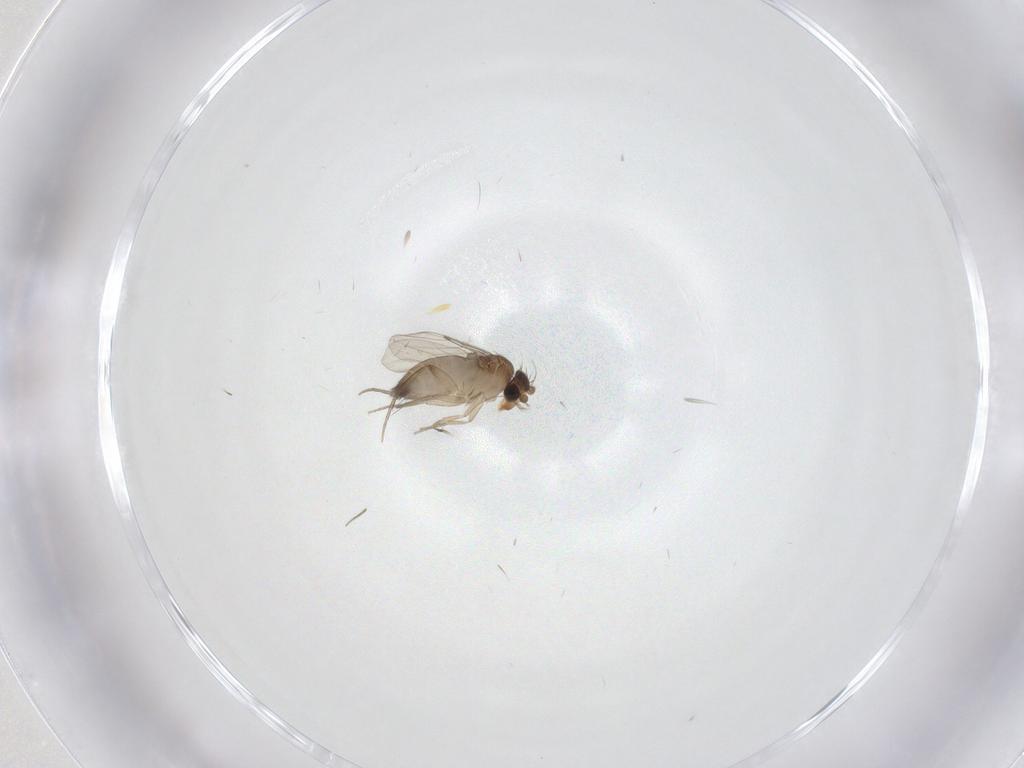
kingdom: Animalia
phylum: Arthropoda
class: Insecta
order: Diptera
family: Phoridae
